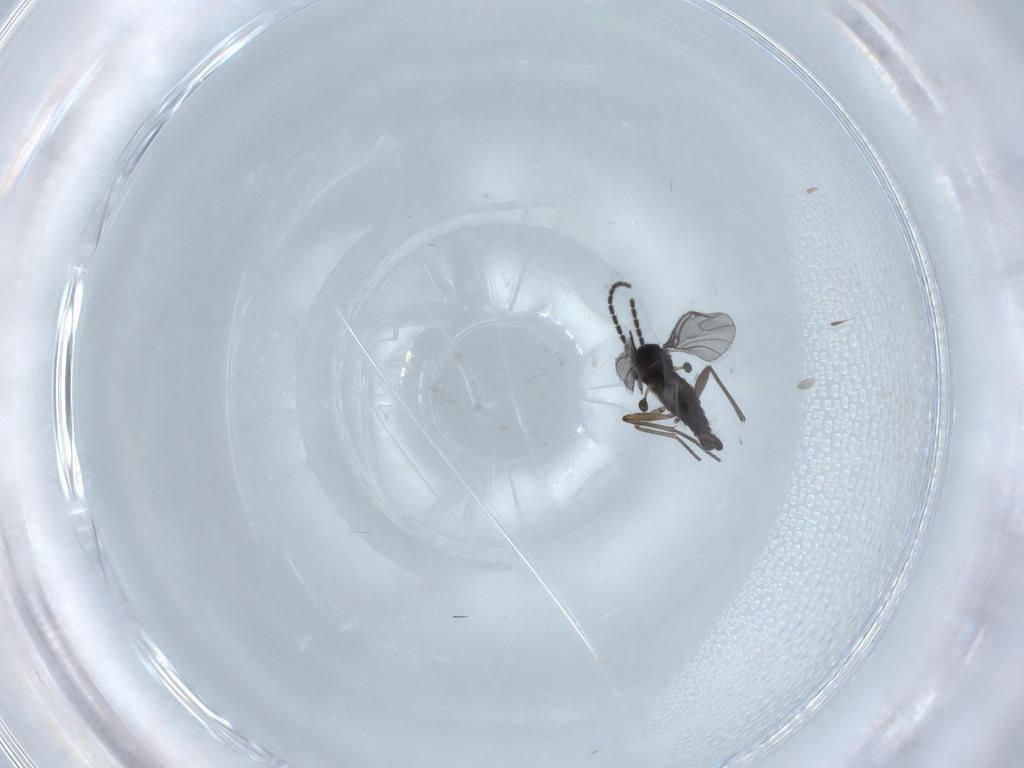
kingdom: Animalia
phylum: Arthropoda
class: Insecta
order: Diptera
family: Sciaridae
